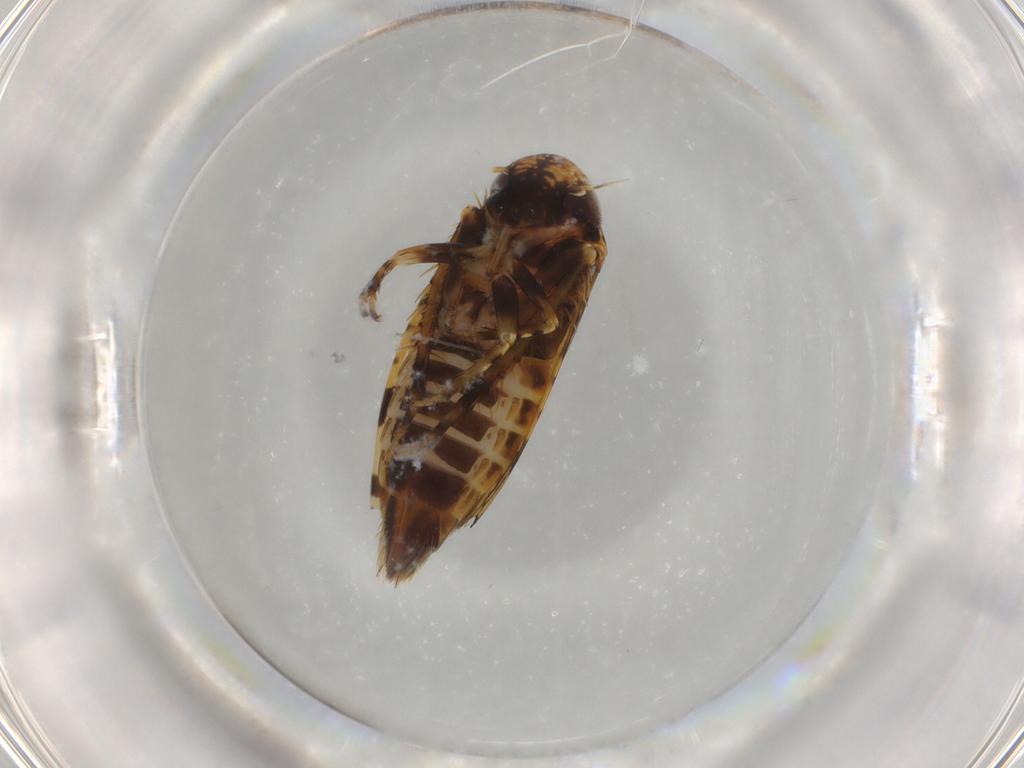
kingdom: Animalia
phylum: Arthropoda
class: Insecta
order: Hemiptera
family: Cicadellidae
